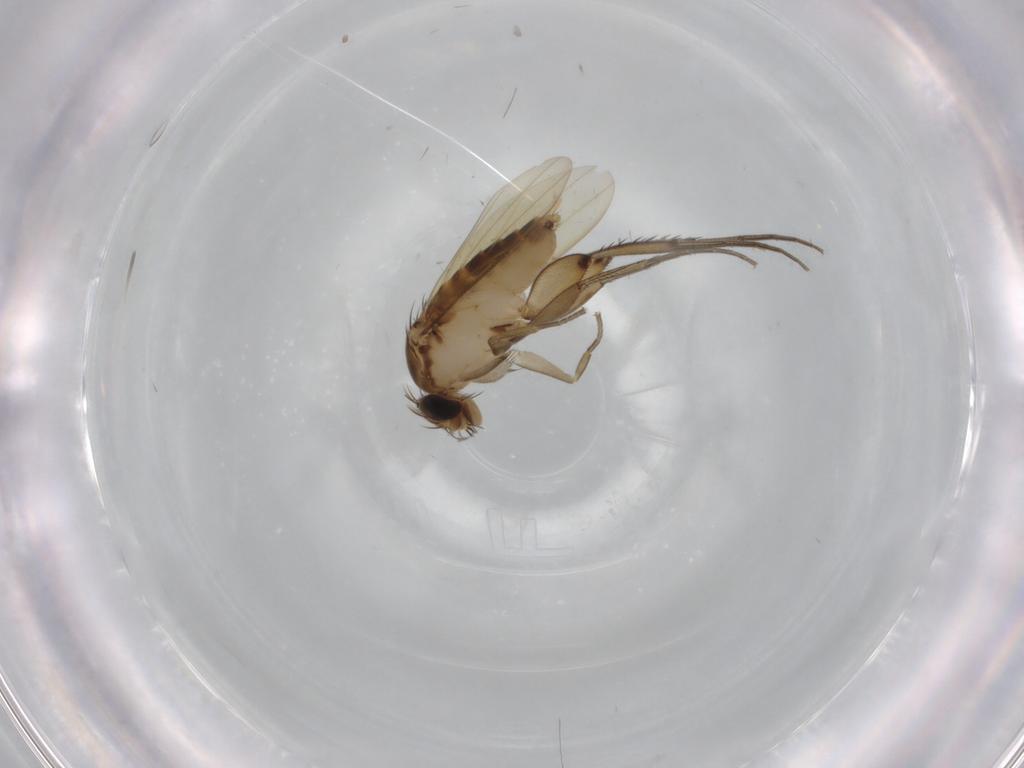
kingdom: Animalia
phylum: Arthropoda
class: Insecta
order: Diptera
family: Phoridae
